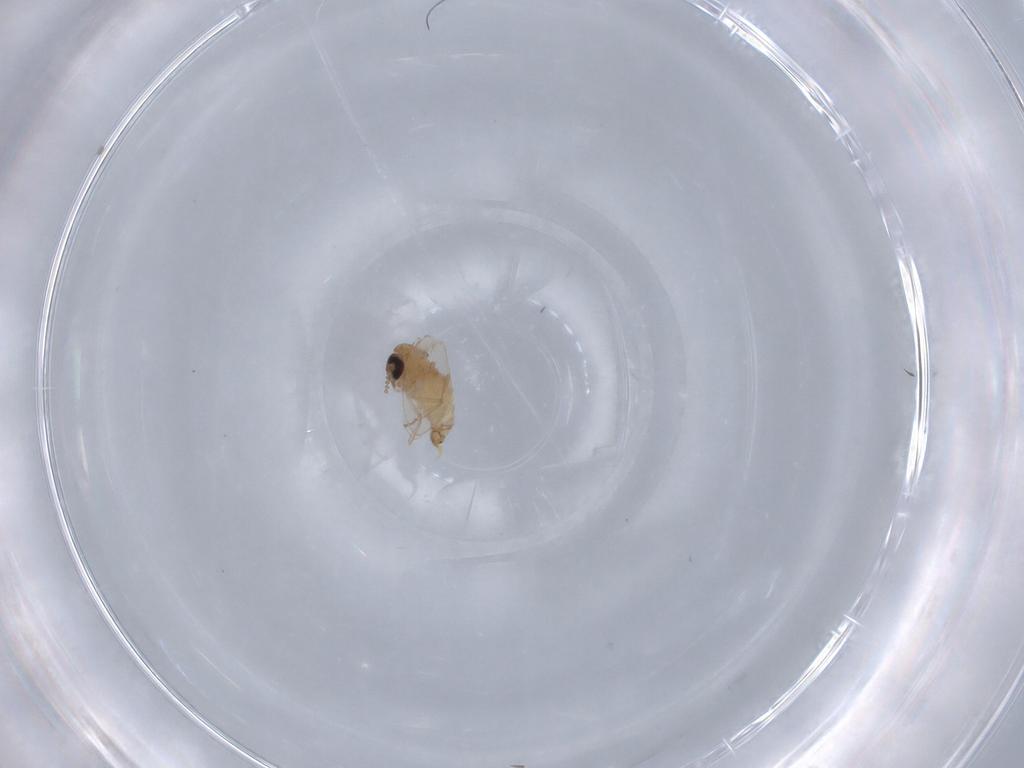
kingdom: Animalia
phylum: Arthropoda
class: Insecta
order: Diptera
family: Psychodidae
